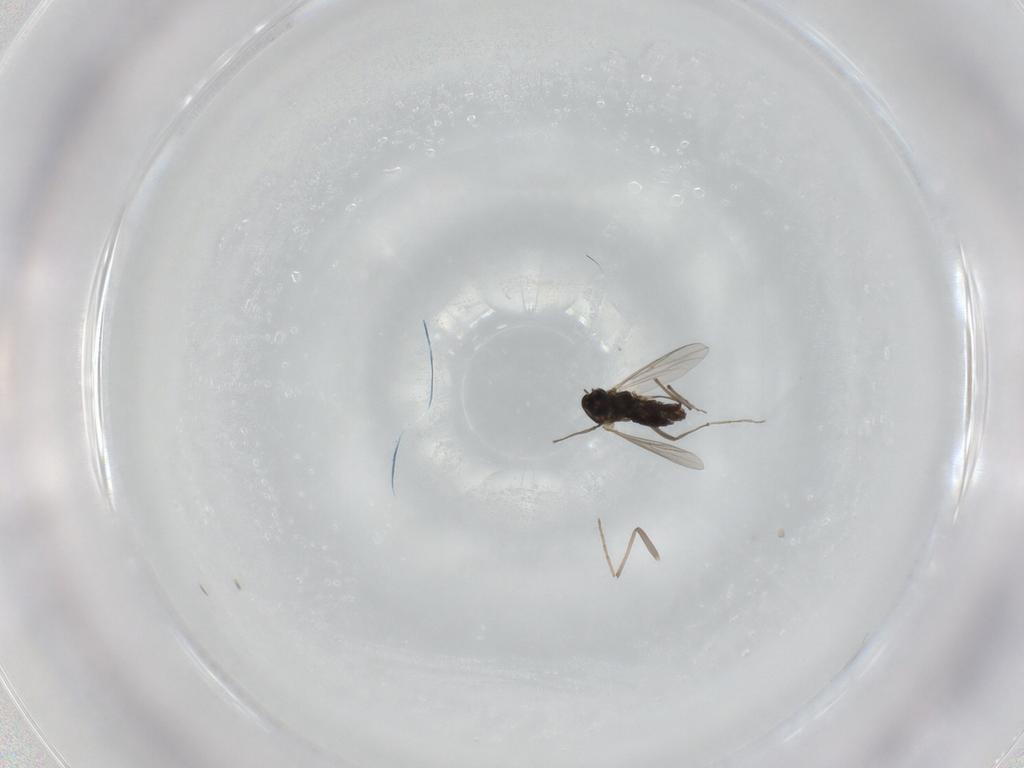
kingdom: Animalia
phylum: Arthropoda
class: Insecta
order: Diptera
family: Chironomidae
